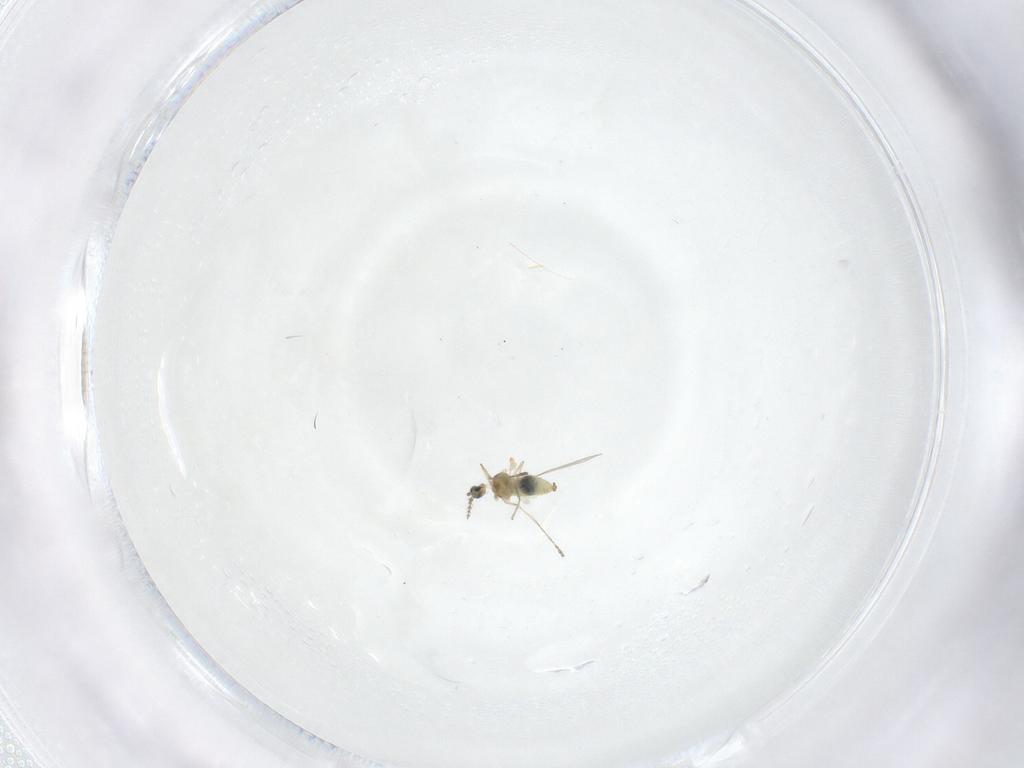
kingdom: Animalia
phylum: Arthropoda
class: Insecta
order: Diptera
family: Cecidomyiidae
